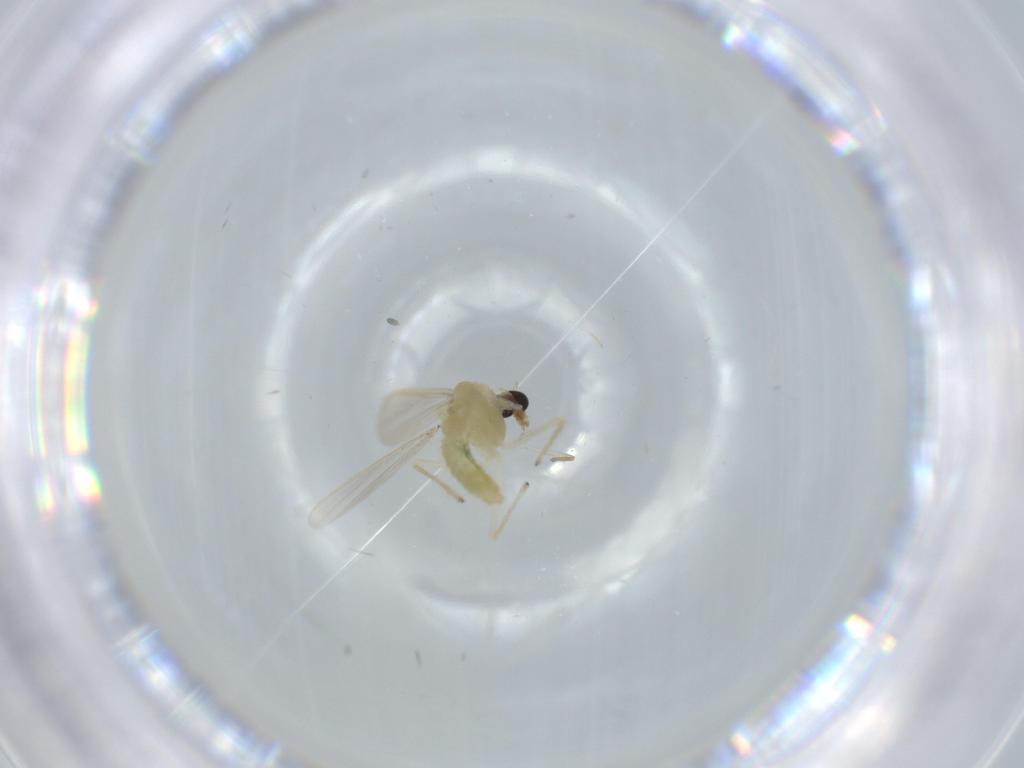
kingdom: Animalia
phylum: Arthropoda
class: Insecta
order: Diptera
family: Chironomidae
